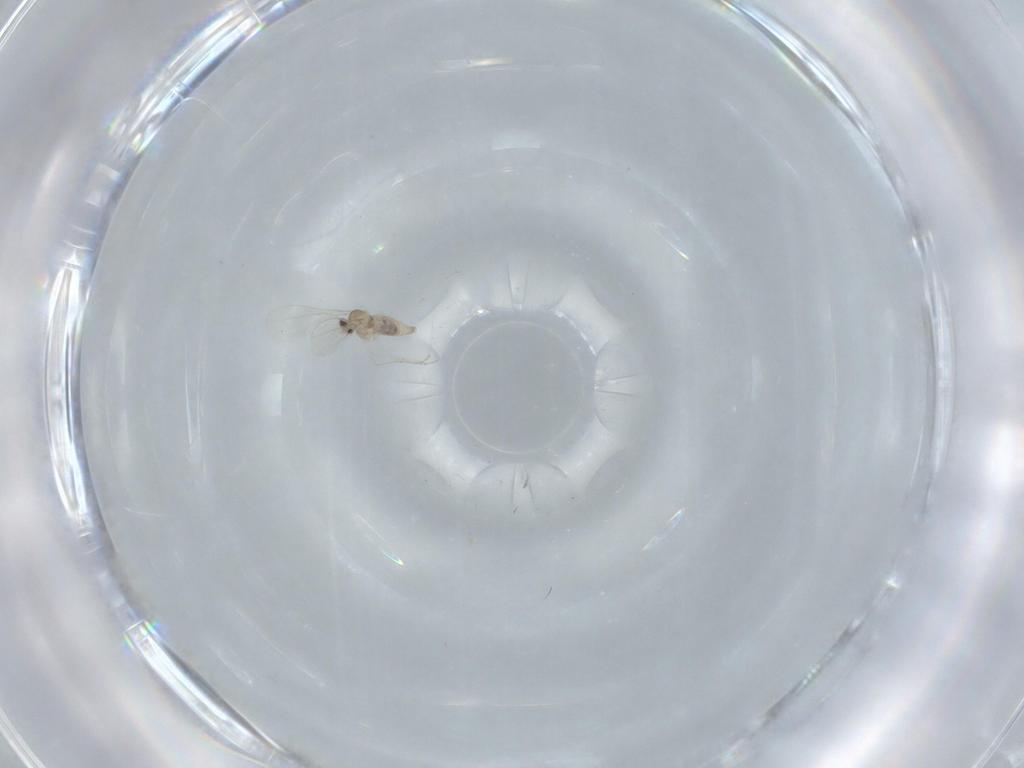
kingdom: Animalia
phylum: Arthropoda
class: Insecta
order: Diptera
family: Cecidomyiidae
